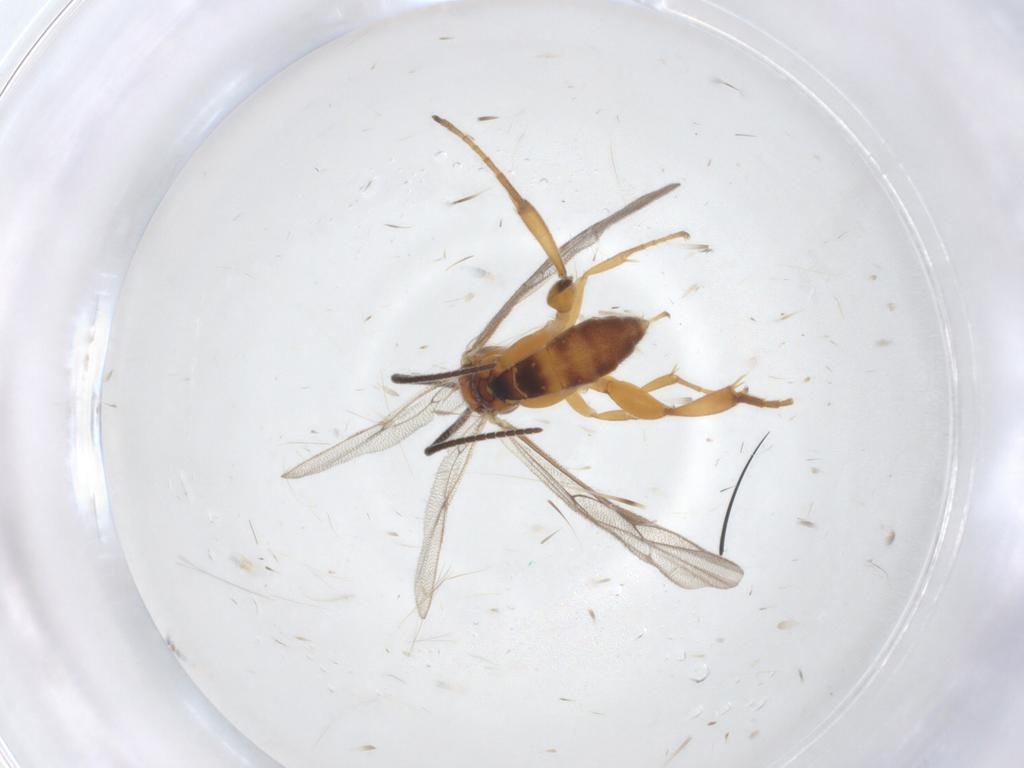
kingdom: Animalia
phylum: Arthropoda
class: Insecta
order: Hymenoptera
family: Ichneumonidae
